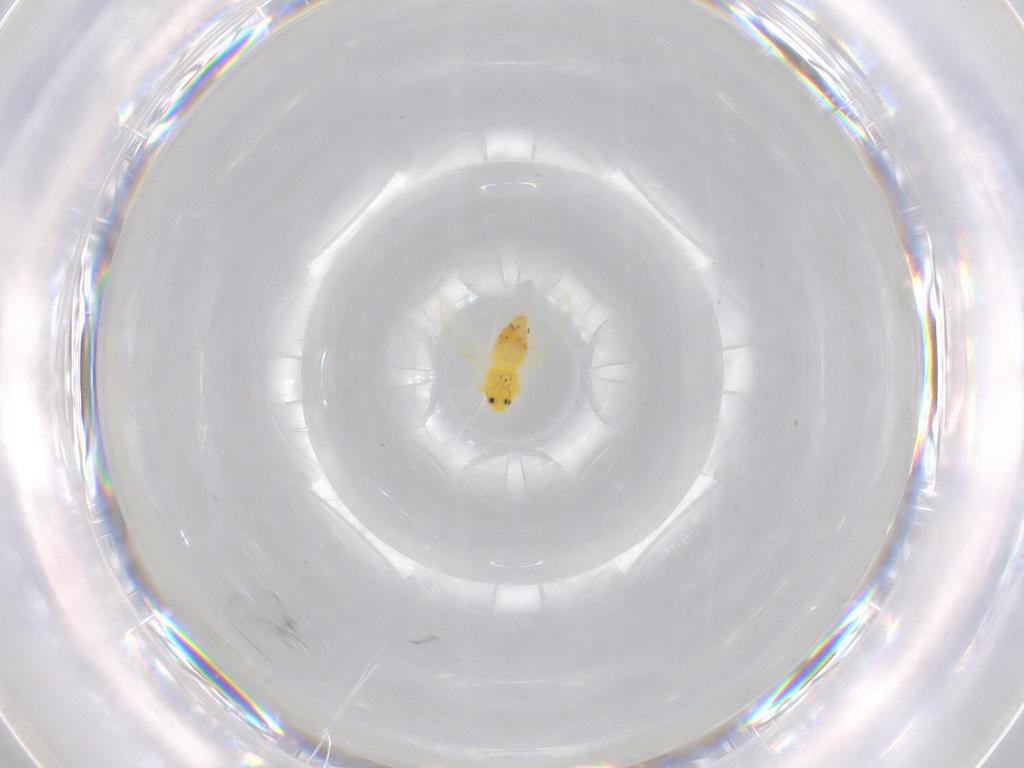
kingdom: Animalia
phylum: Arthropoda
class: Insecta
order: Hemiptera
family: Aleyrodidae
